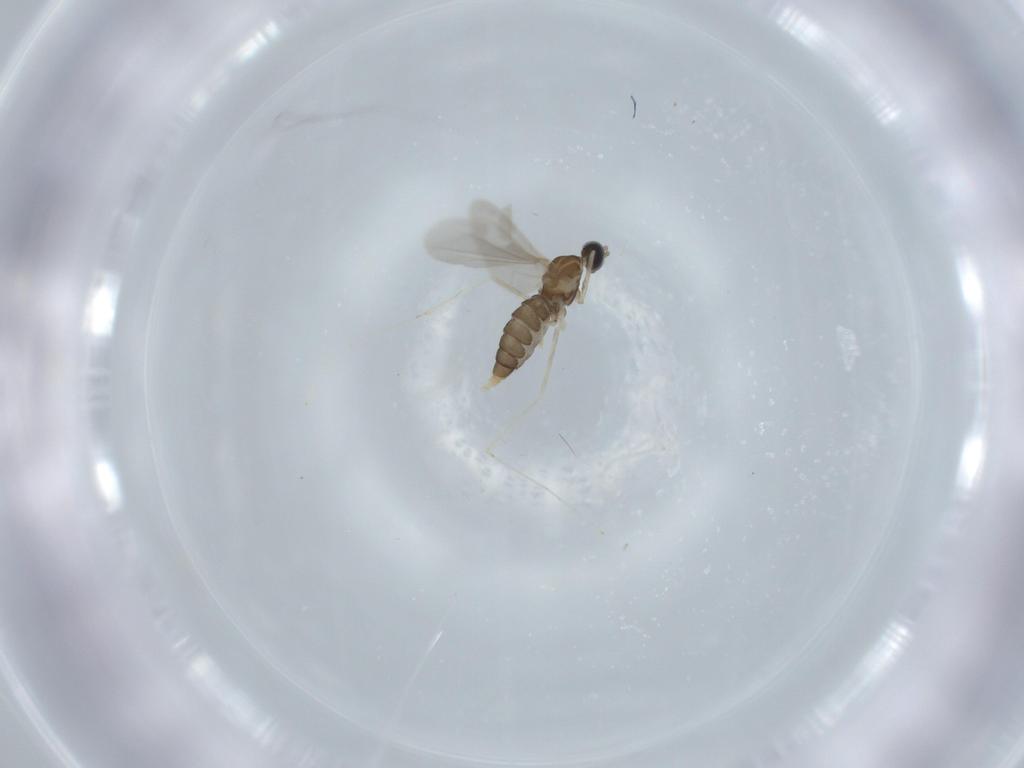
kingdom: Animalia
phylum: Arthropoda
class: Insecta
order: Diptera
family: Cecidomyiidae
